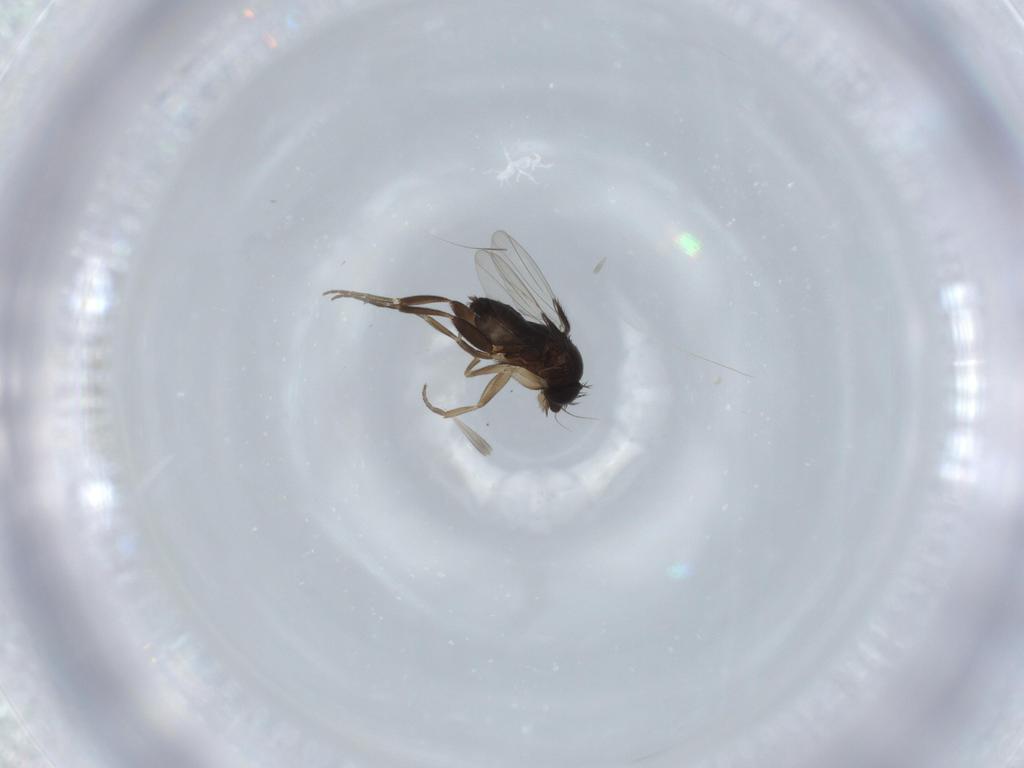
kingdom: Animalia
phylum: Arthropoda
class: Insecta
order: Diptera
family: Phoridae
